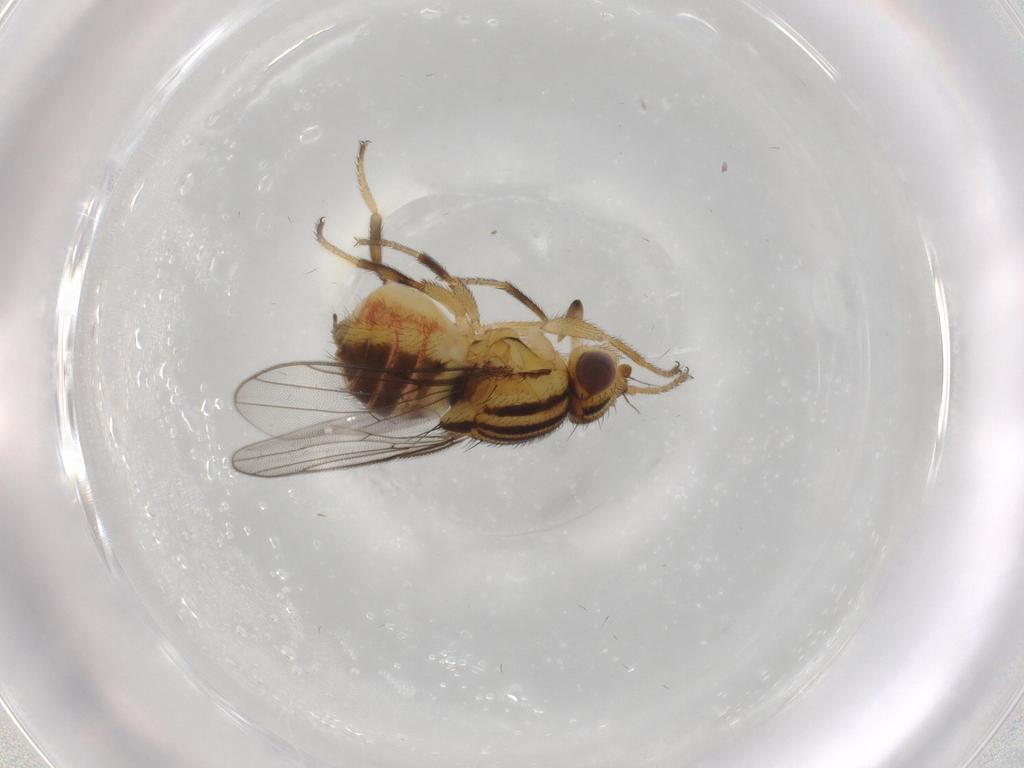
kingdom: Animalia
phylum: Arthropoda
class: Insecta
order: Diptera
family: Chloropidae
